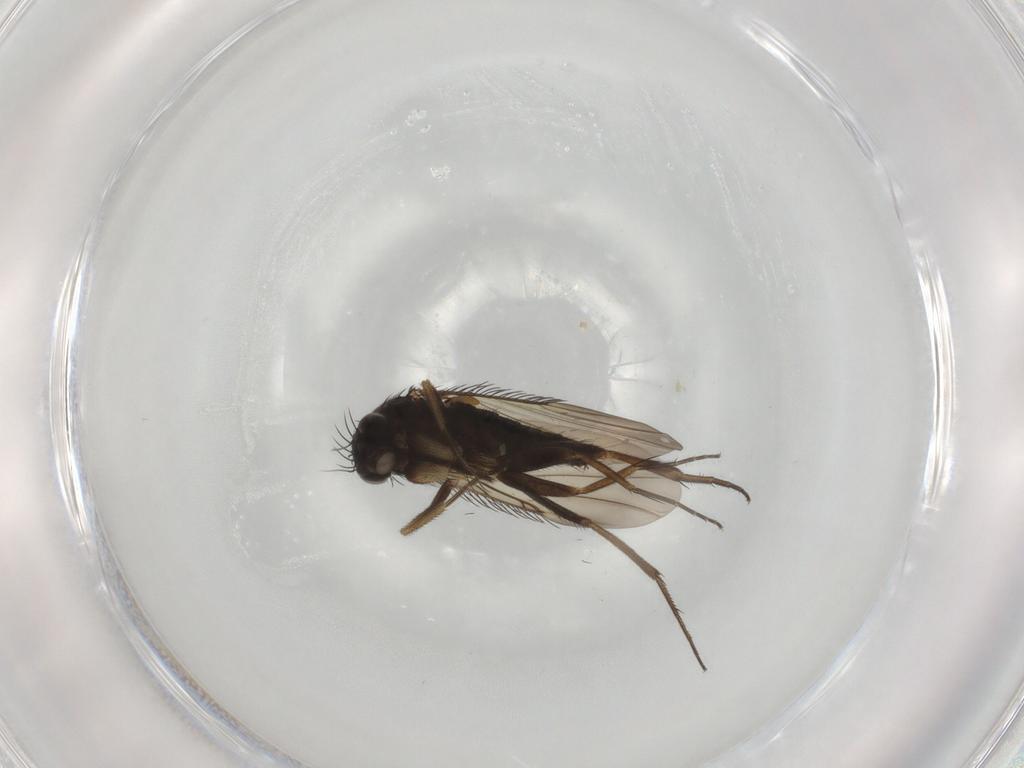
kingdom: Animalia
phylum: Arthropoda
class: Insecta
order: Diptera
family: Phoridae
